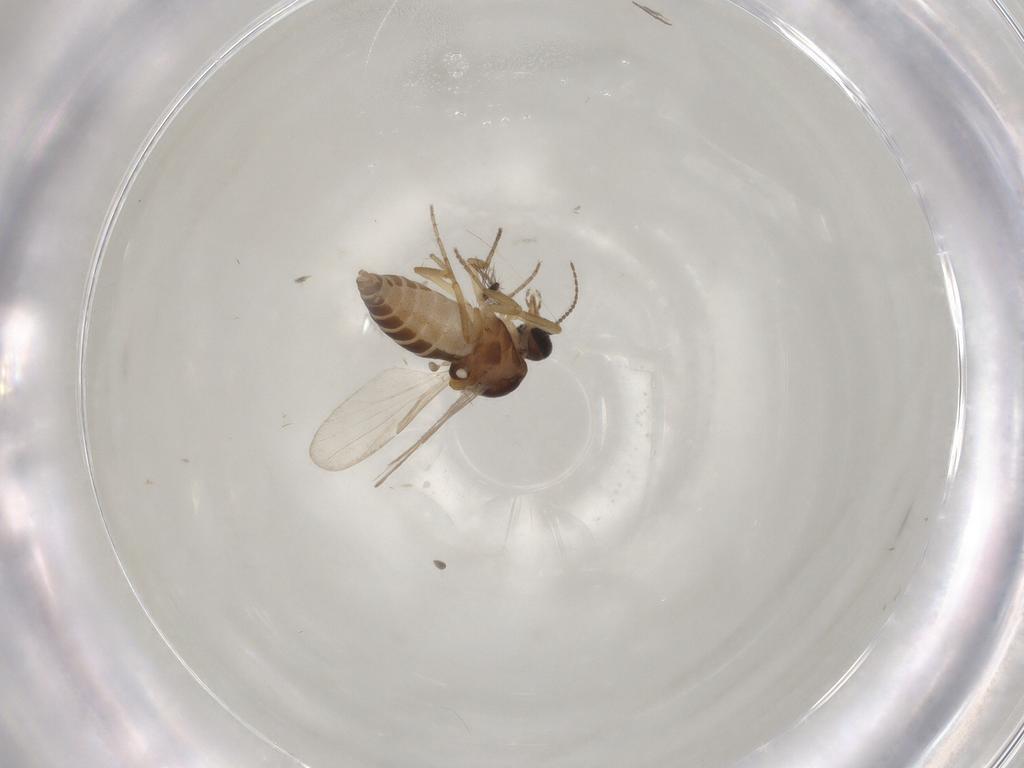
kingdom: Animalia
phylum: Arthropoda
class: Insecta
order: Diptera
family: Ceratopogonidae
